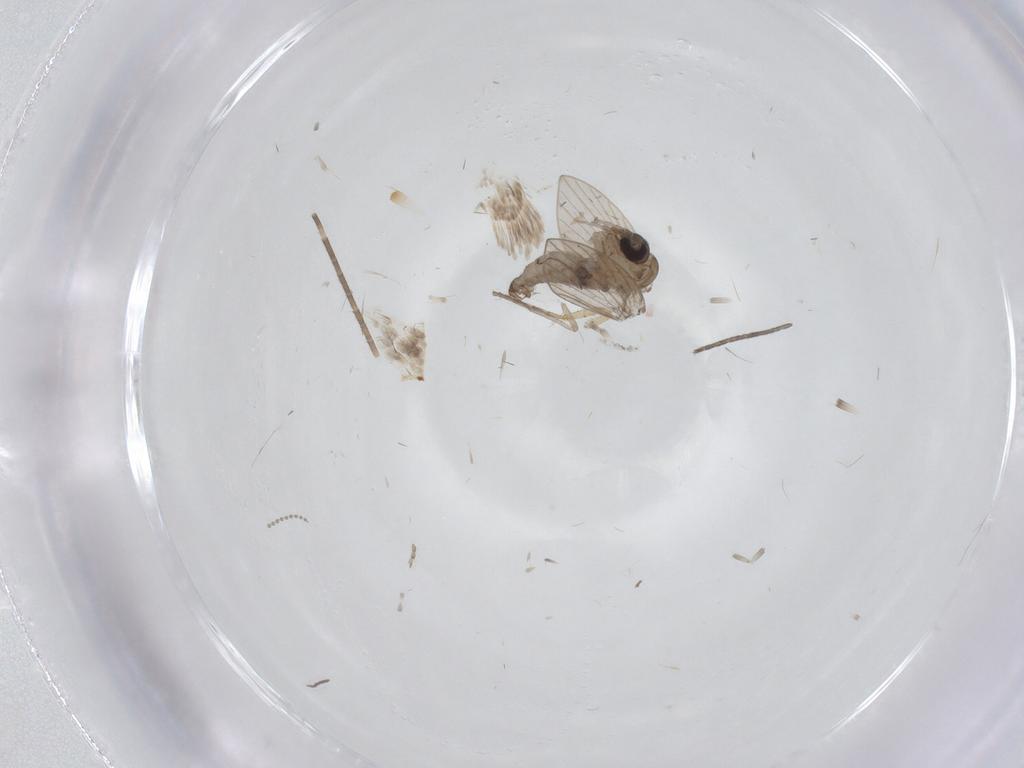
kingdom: Animalia
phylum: Arthropoda
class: Insecta
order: Diptera
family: Psychodidae
